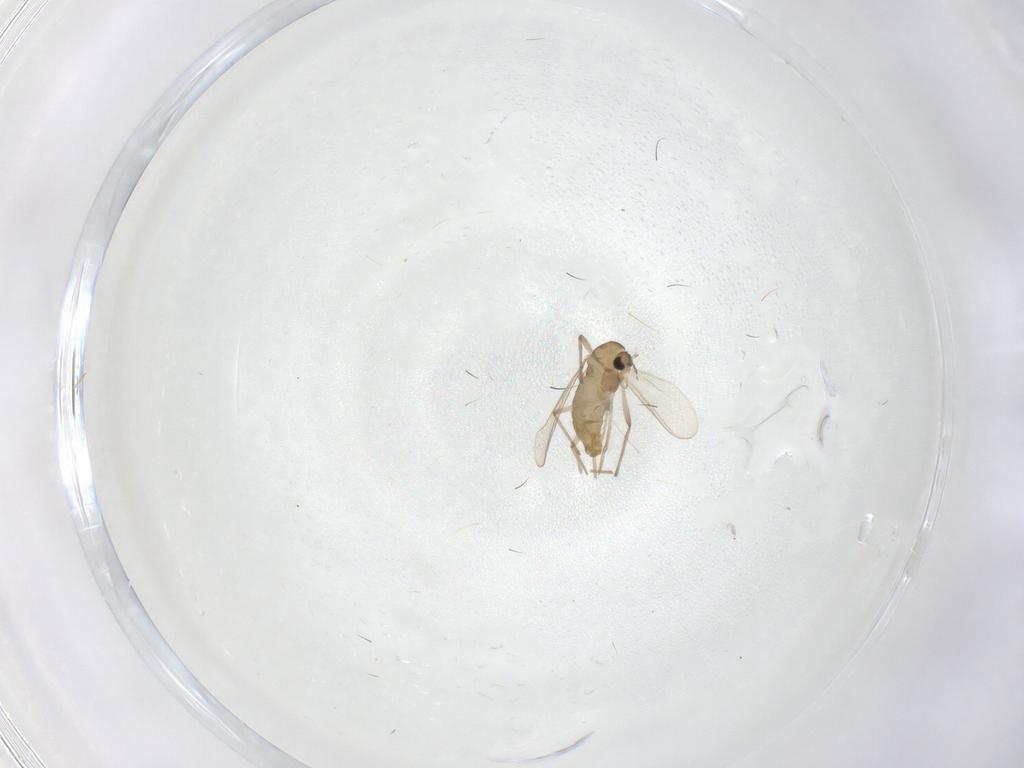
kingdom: Animalia
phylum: Arthropoda
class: Insecta
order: Diptera
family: Chironomidae
